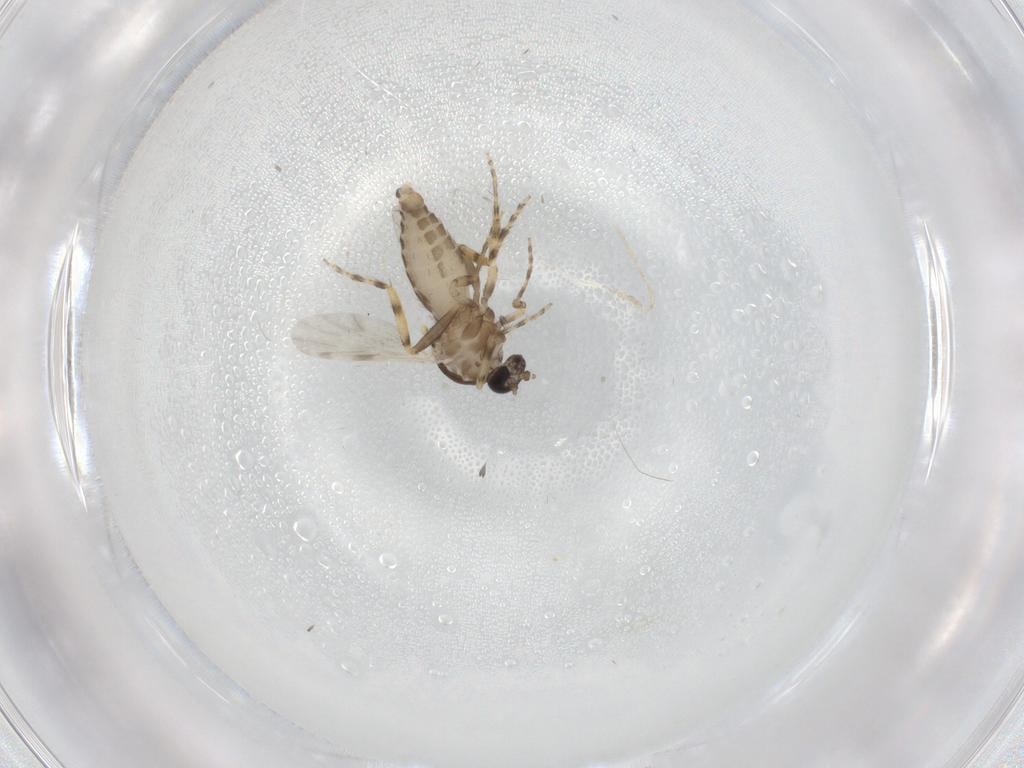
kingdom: Animalia
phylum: Arthropoda
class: Insecta
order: Diptera
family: Ceratopogonidae
